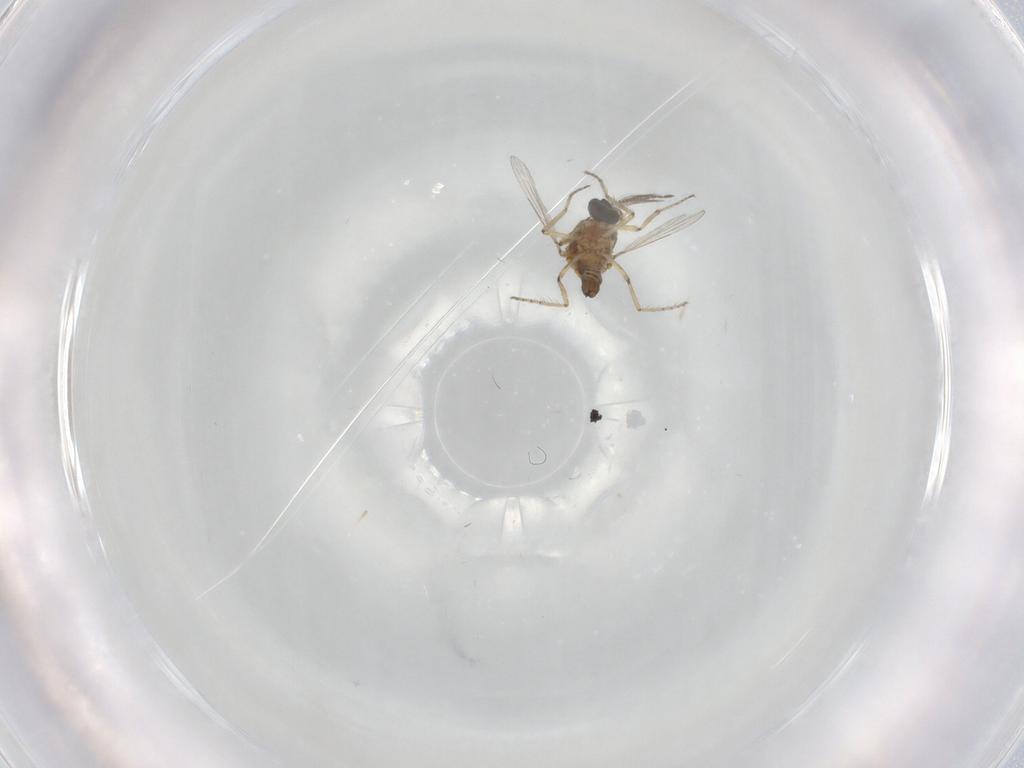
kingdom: Animalia
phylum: Arthropoda
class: Insecta
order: Diptera
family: Ceratopogonidae
